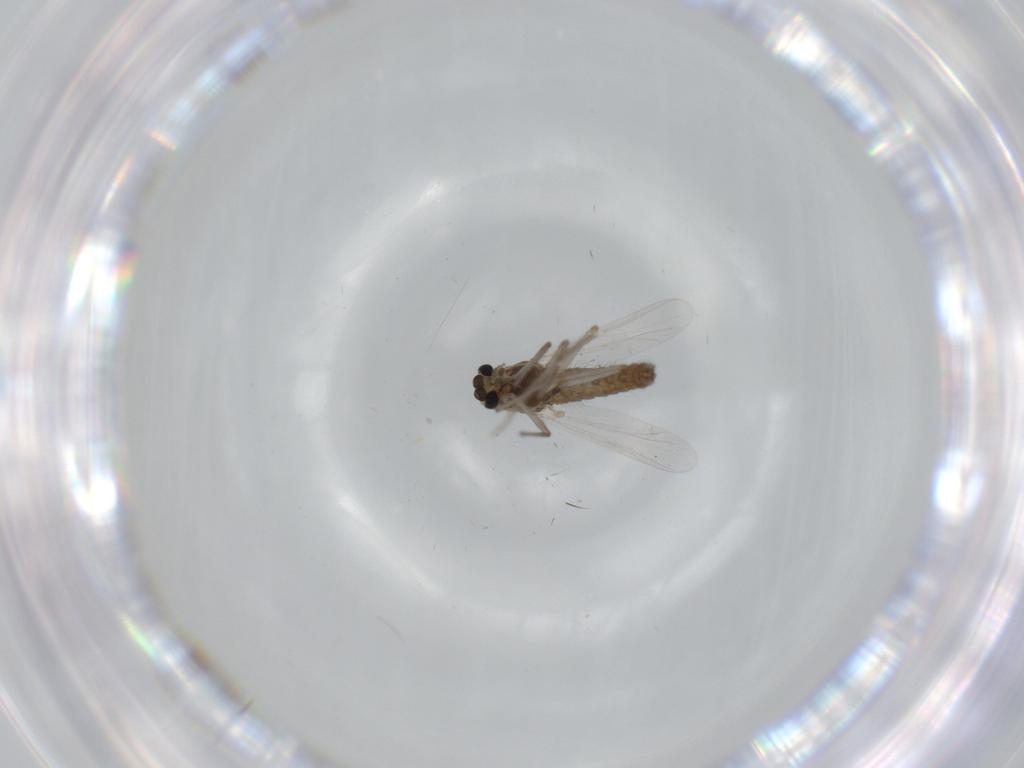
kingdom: Animalia
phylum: Arthropoda
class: Insecta
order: Diptera
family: Chironomidae
